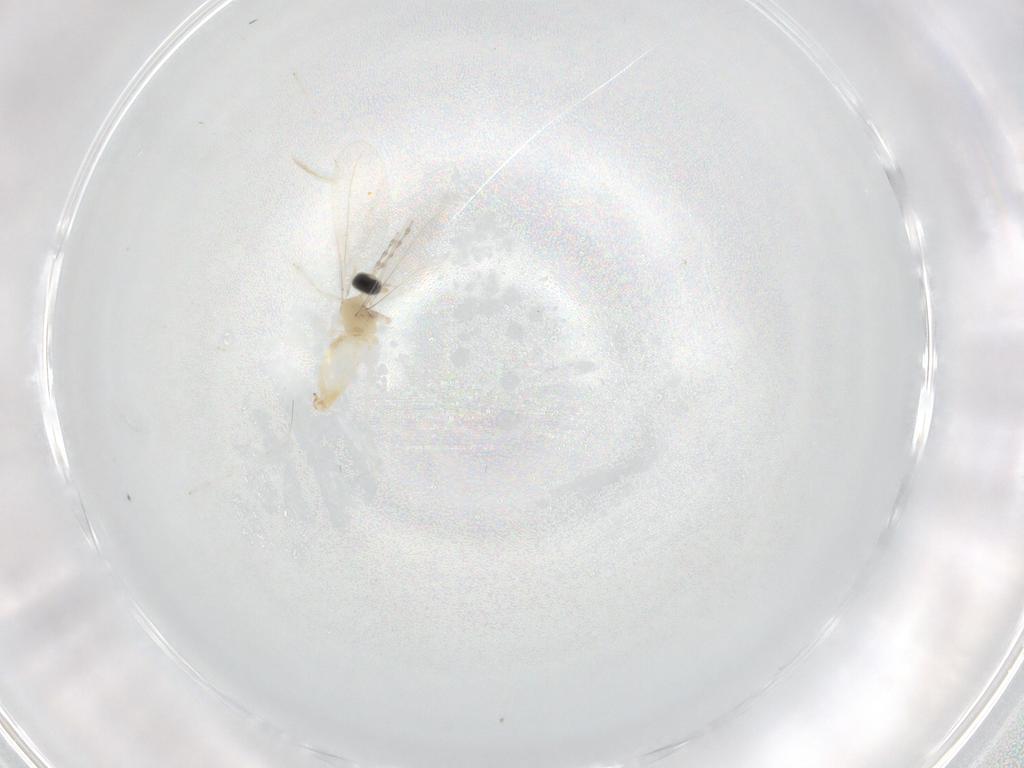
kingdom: Animalia
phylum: Arthropoda
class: Insecta
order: Diptera
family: Cecidomyiidae
